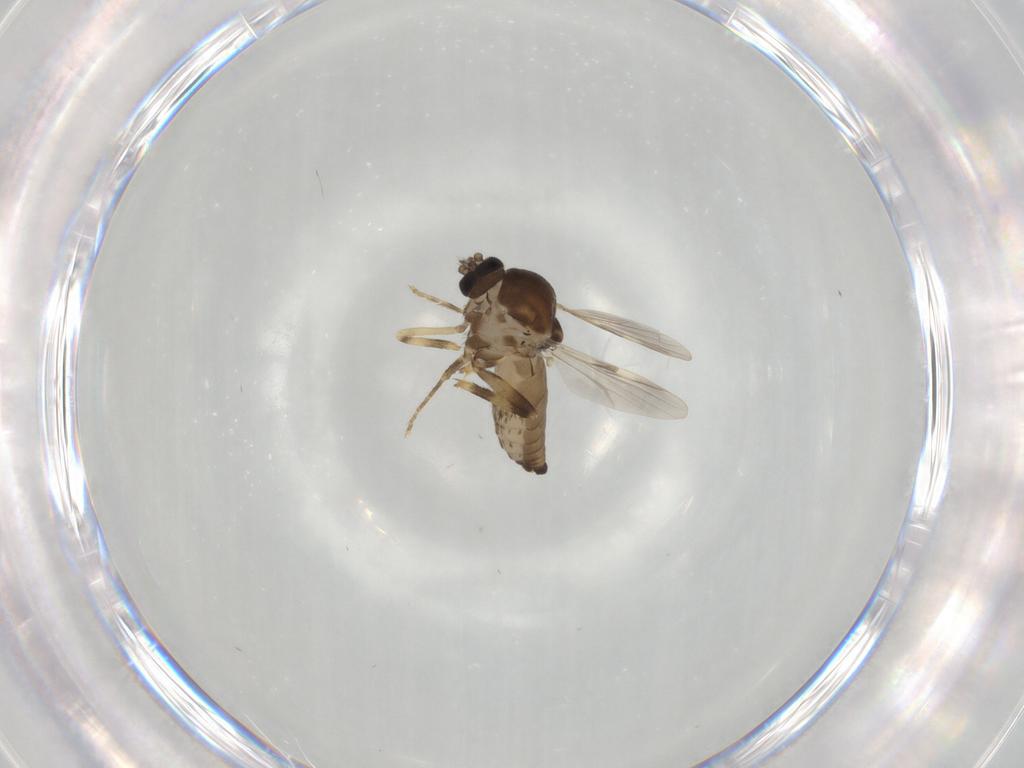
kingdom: Animalia
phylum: Arthropoda
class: Insecta
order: Diptera
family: Ceratopogonidae
